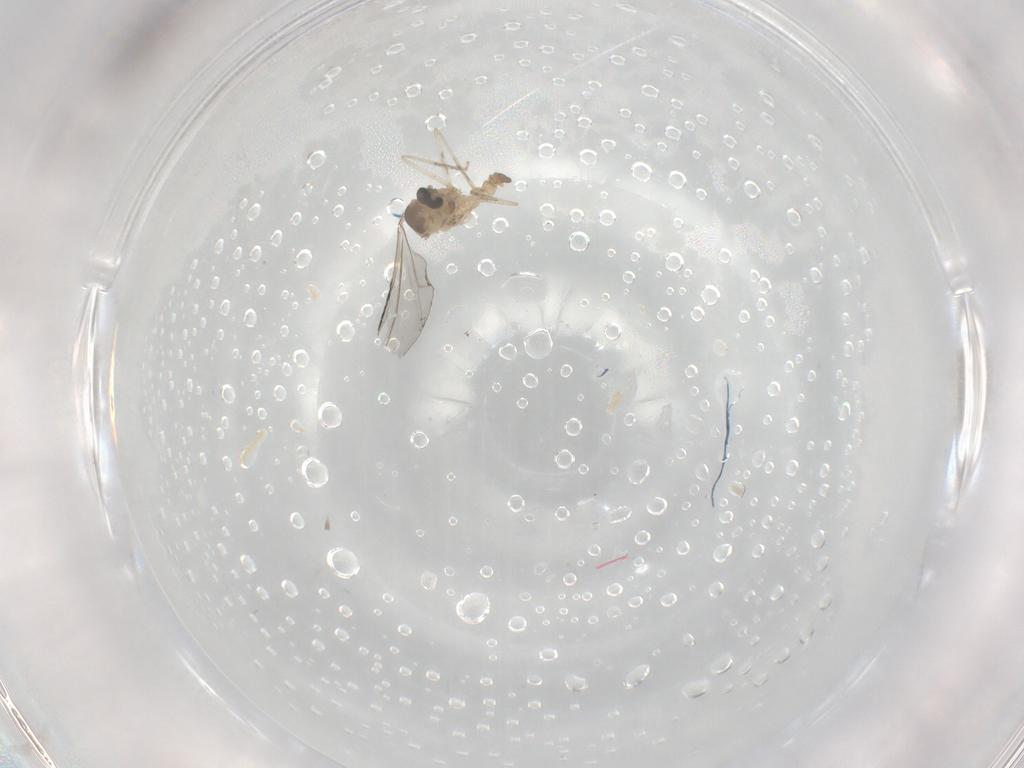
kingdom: Animalia
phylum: Arthropoda
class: Insecta
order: Diptera
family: Cecidomyiidae
